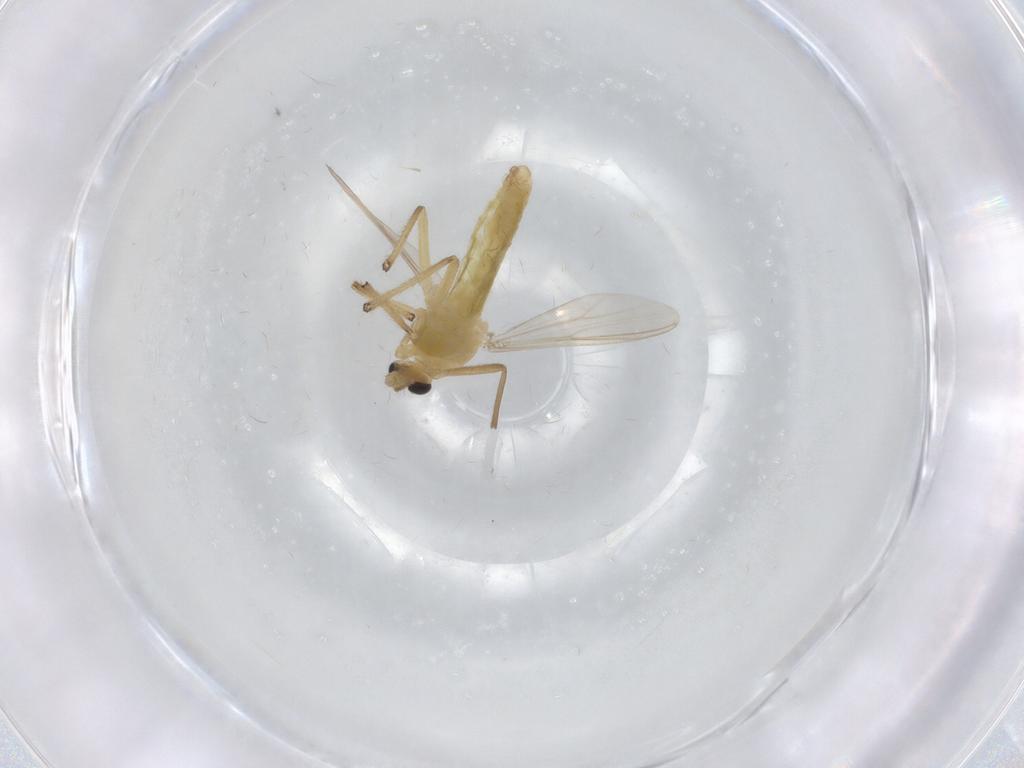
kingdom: Animalia
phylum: Arthropoda
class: Insecta
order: Diptera
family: Chironomidae
